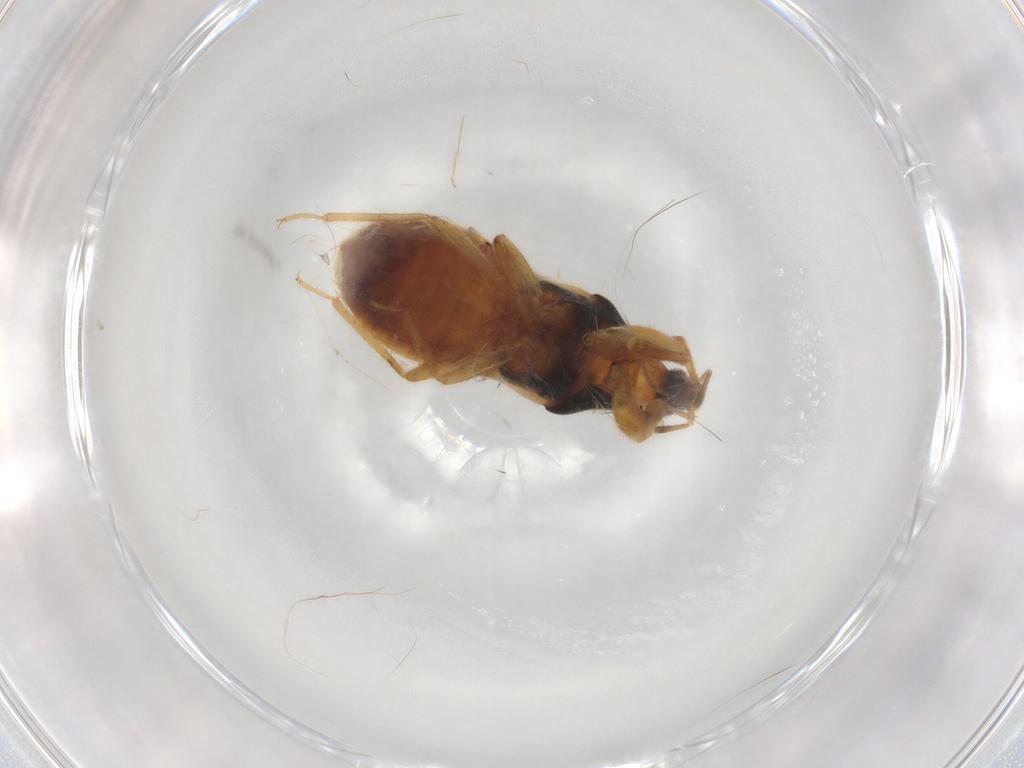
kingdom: Animalia
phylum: Arthropoda
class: Insecta
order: Hemiptera
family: Nabidae
